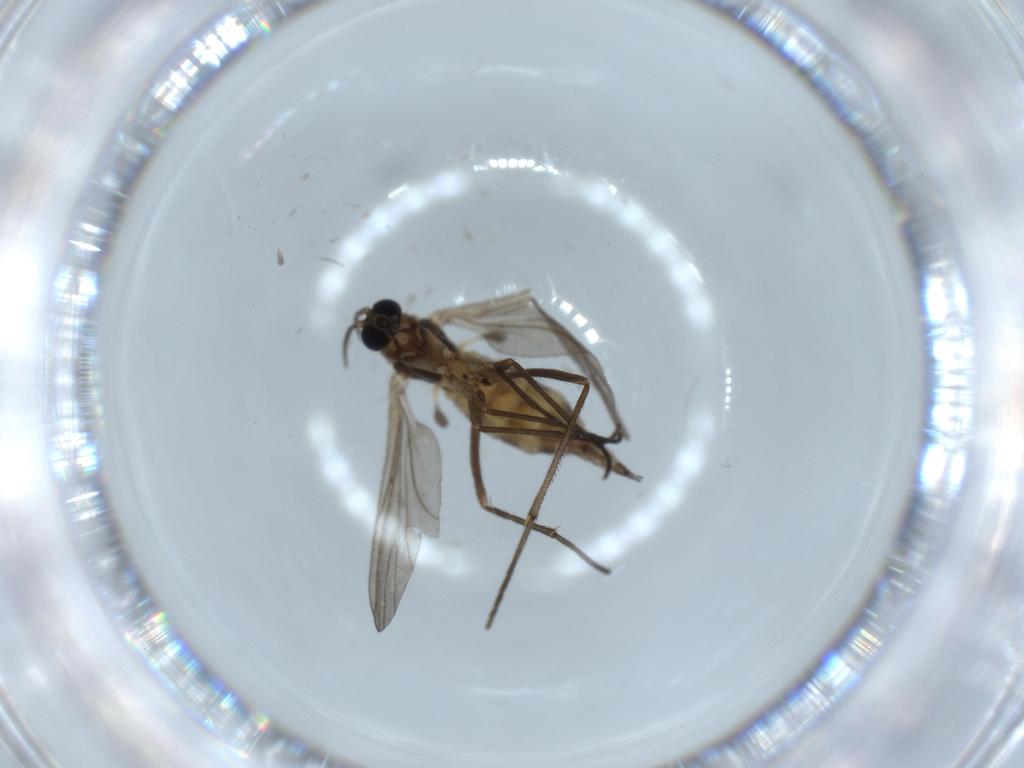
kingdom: Animalia
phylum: Arthropoda
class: Insecta
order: Diptera
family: Sciaridae
